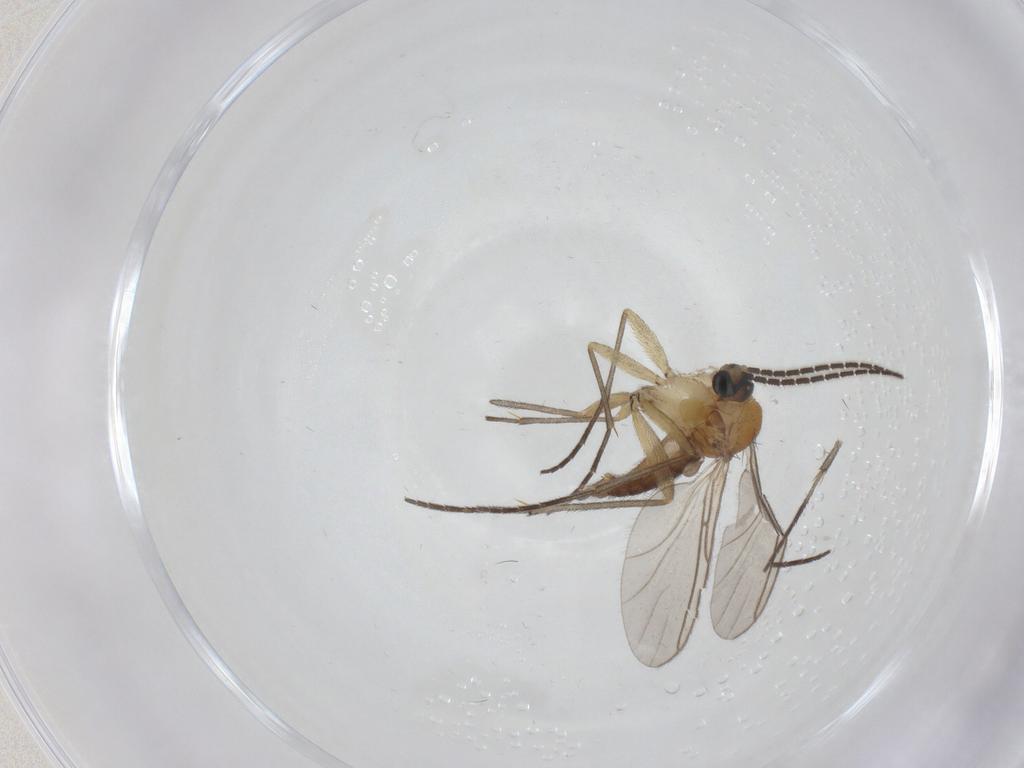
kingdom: Animalia
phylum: Arthropoda
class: Insecta
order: Diptera
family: Sciaridae
